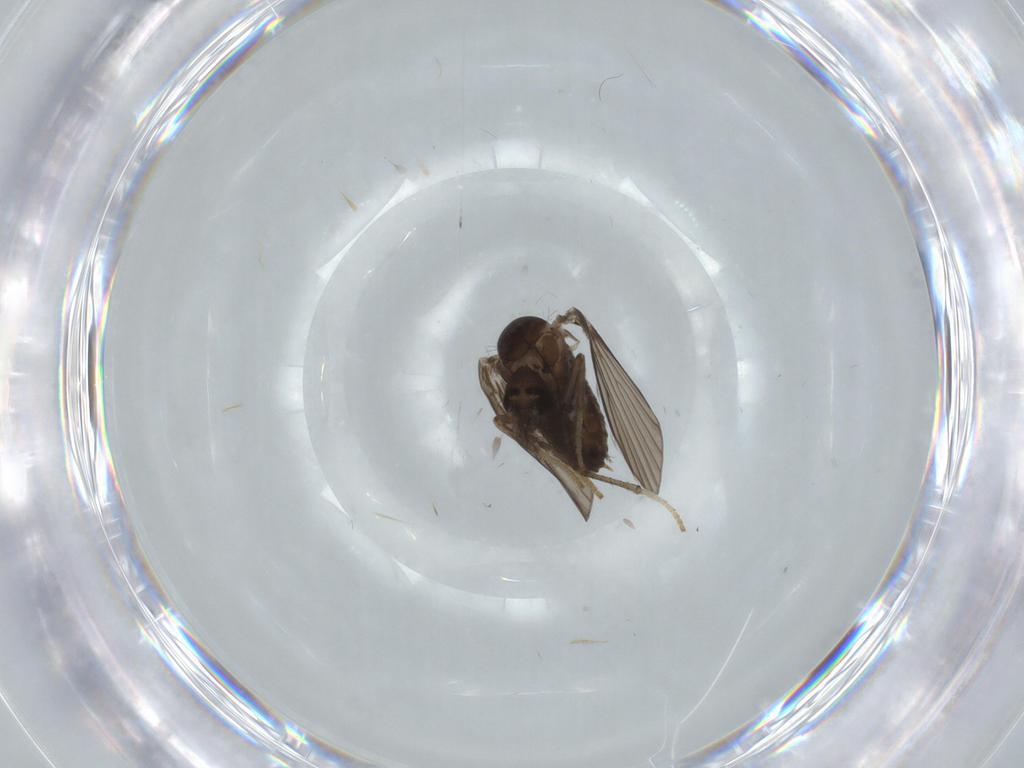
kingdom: Animalia
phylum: Arthropoda
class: Insecta
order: Diptera
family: Psychodidae
